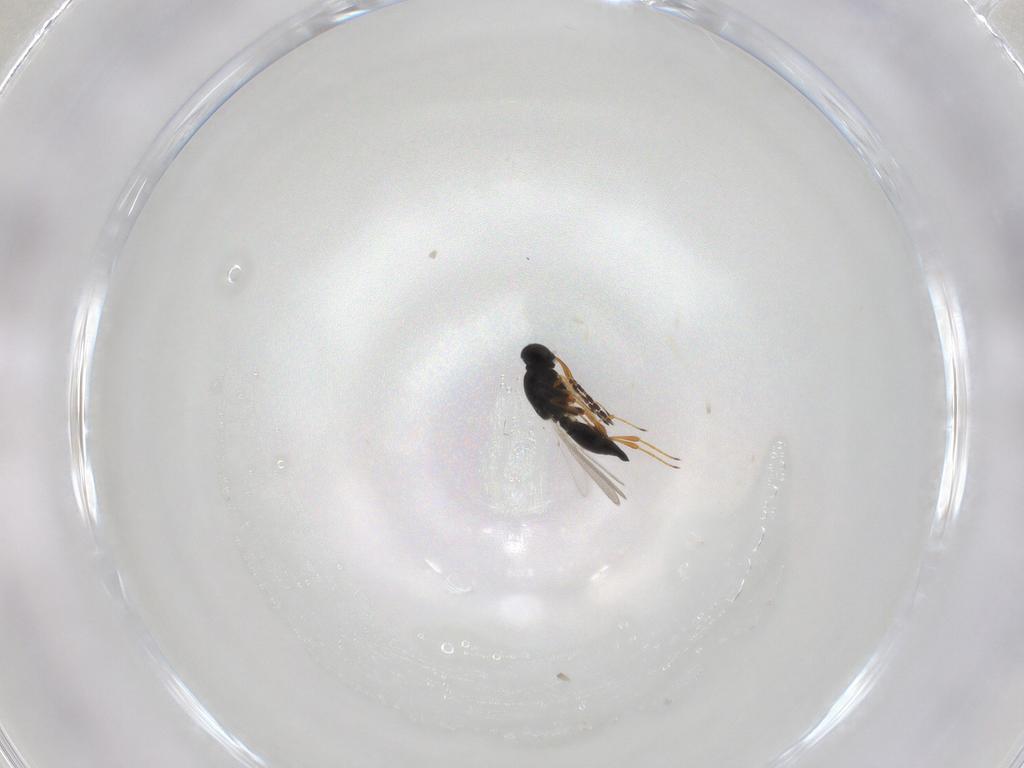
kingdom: Animalia
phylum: Arthropoda
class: Insecta
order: Hymenoptera
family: Platygastridae
